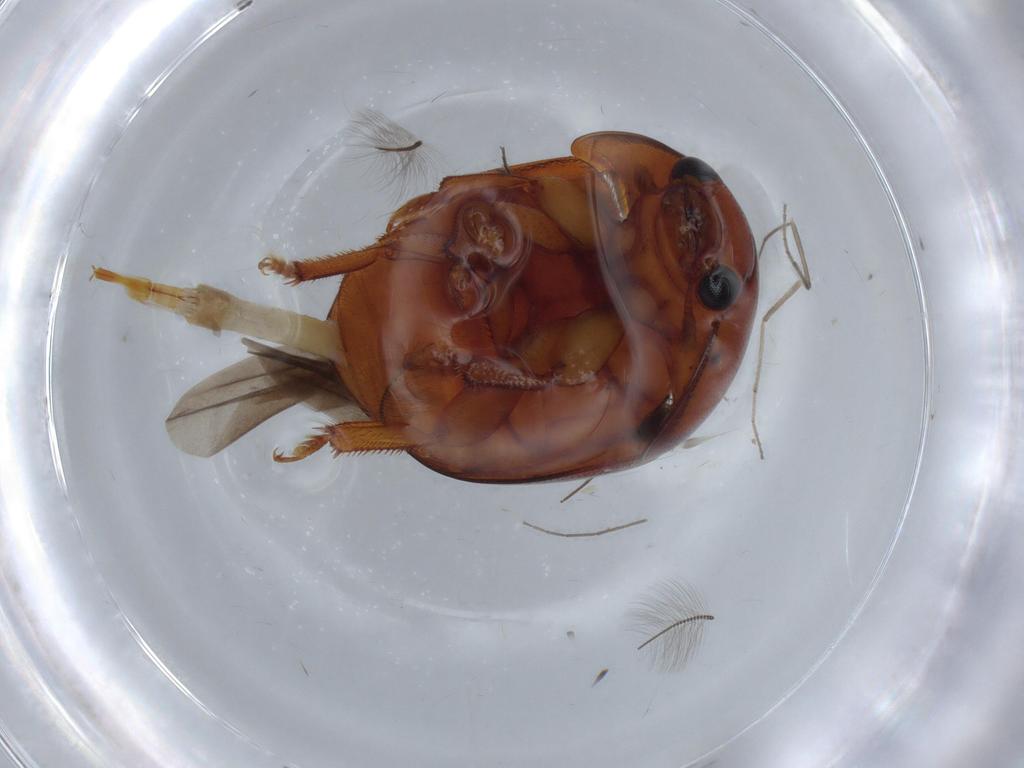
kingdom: Animalia
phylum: Arthropoda
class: Insecta
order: Coleoptera
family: Nitidulidae
